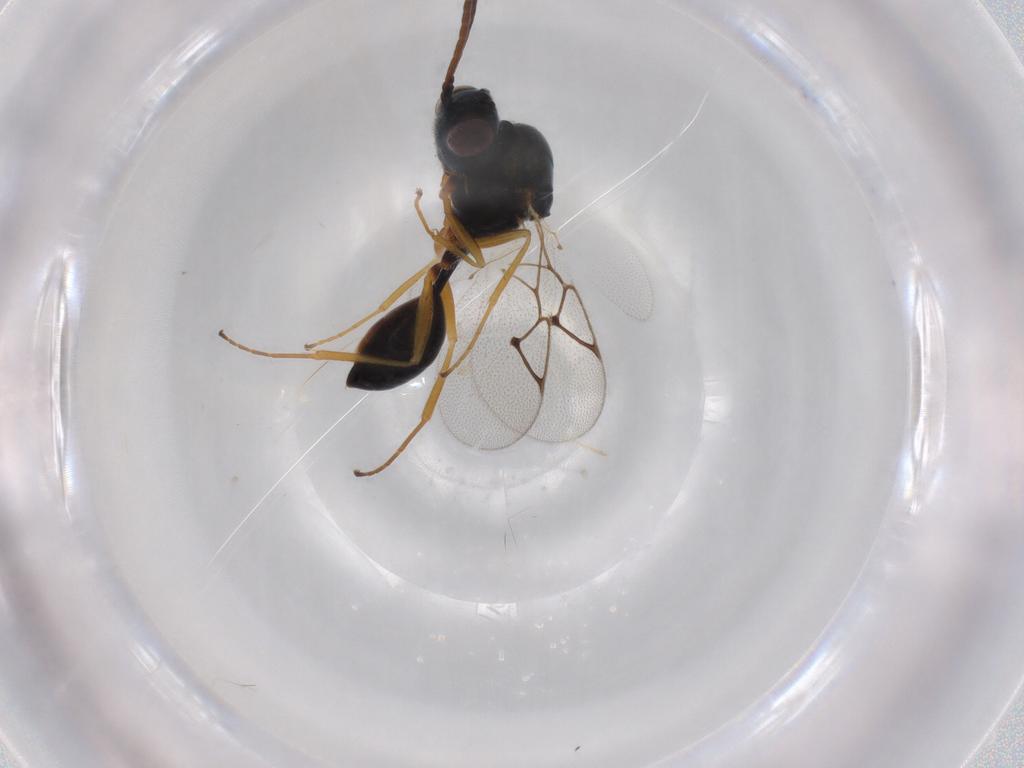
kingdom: Animalia
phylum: Arthropoda
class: Insecta
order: Hymenoptera
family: Figitidae
